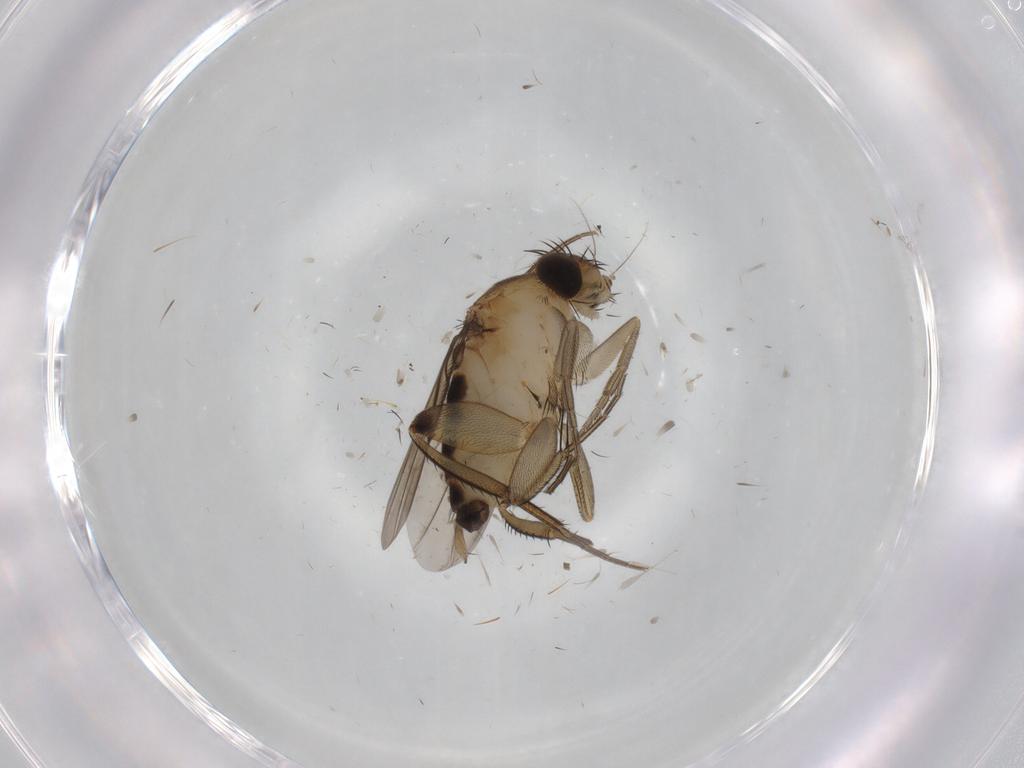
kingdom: Animalia
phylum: Arthropoda
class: Insecta
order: Diptera
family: Phoridae
